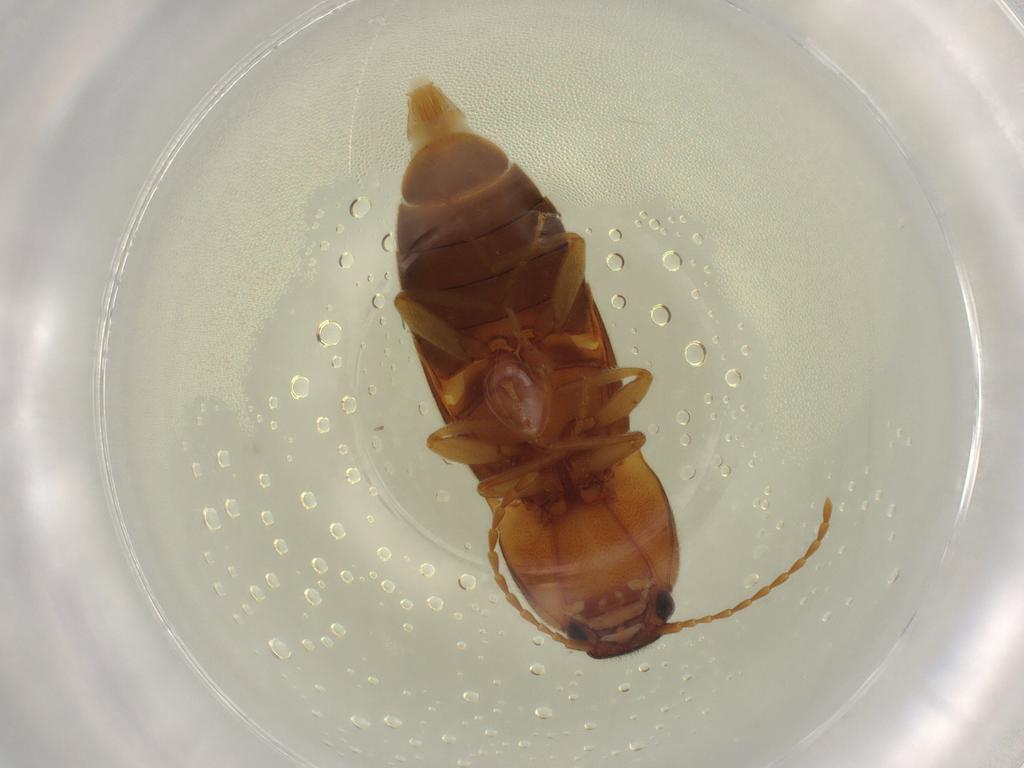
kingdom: Animalia
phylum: Arthropoda
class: Insecta
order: Coleoptera
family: Elateridae
